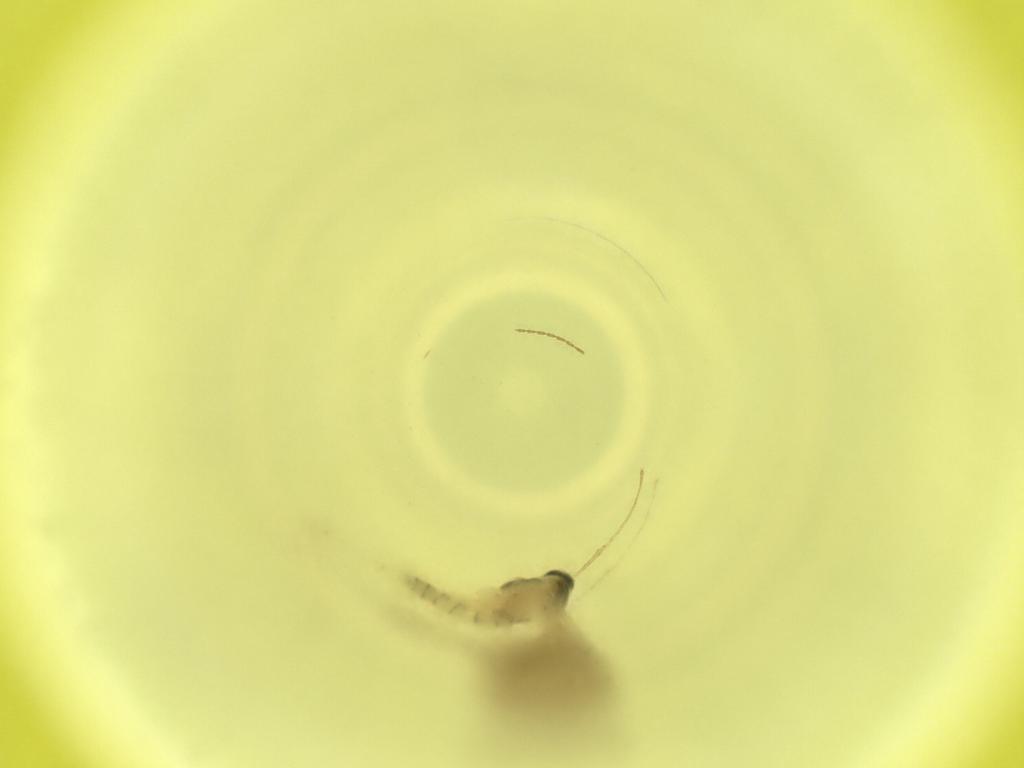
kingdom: Animalia
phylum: Arthropoda
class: Insecta
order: Diptera
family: Cecidomyiidae
